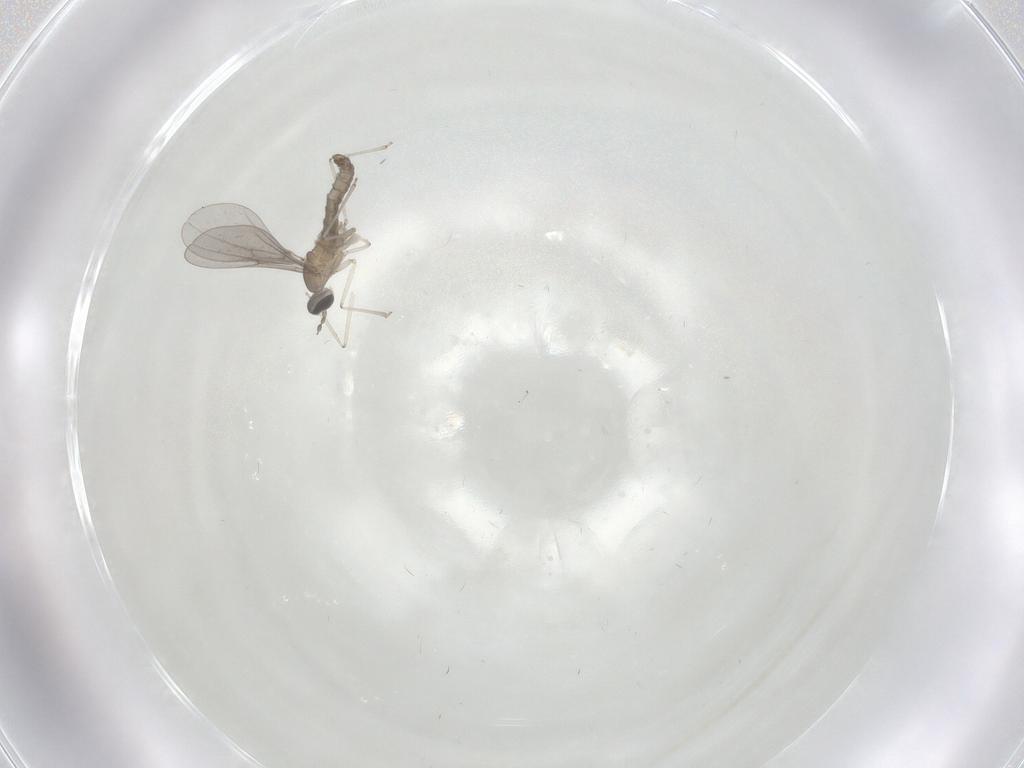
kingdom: Animalia
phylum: Arthropoda
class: Insecta
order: Diptera
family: Cecidomyiidae
